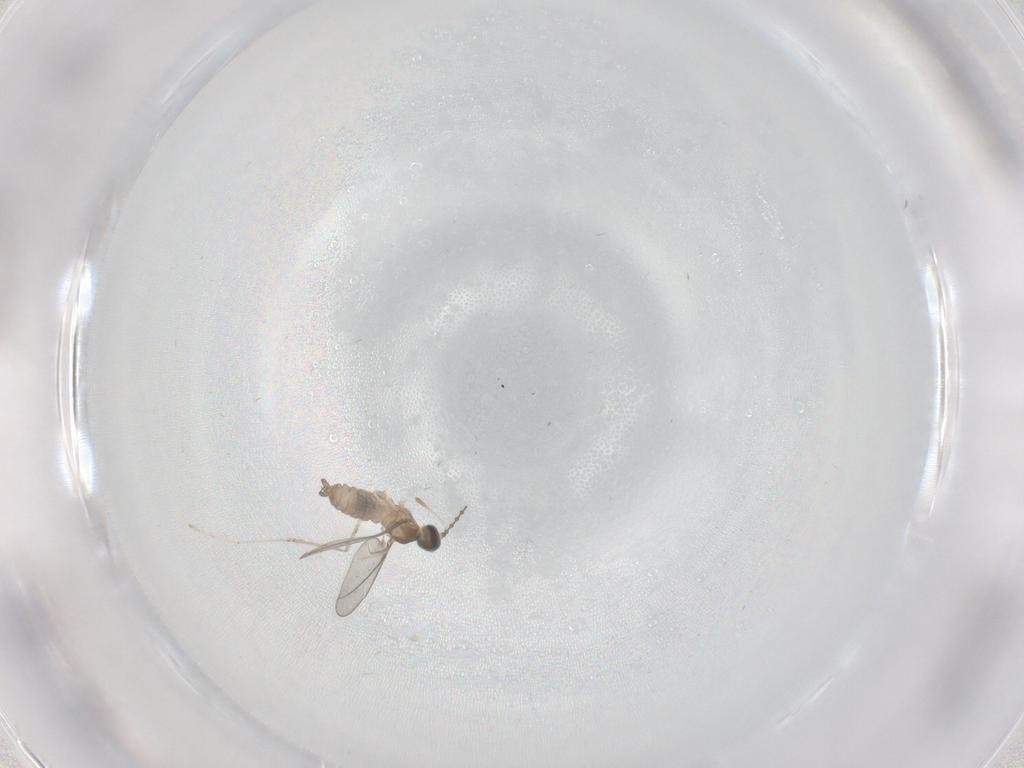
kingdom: Animalia
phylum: Arthropoda
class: Insecta
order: Diptera
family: Cecidomyiidae
